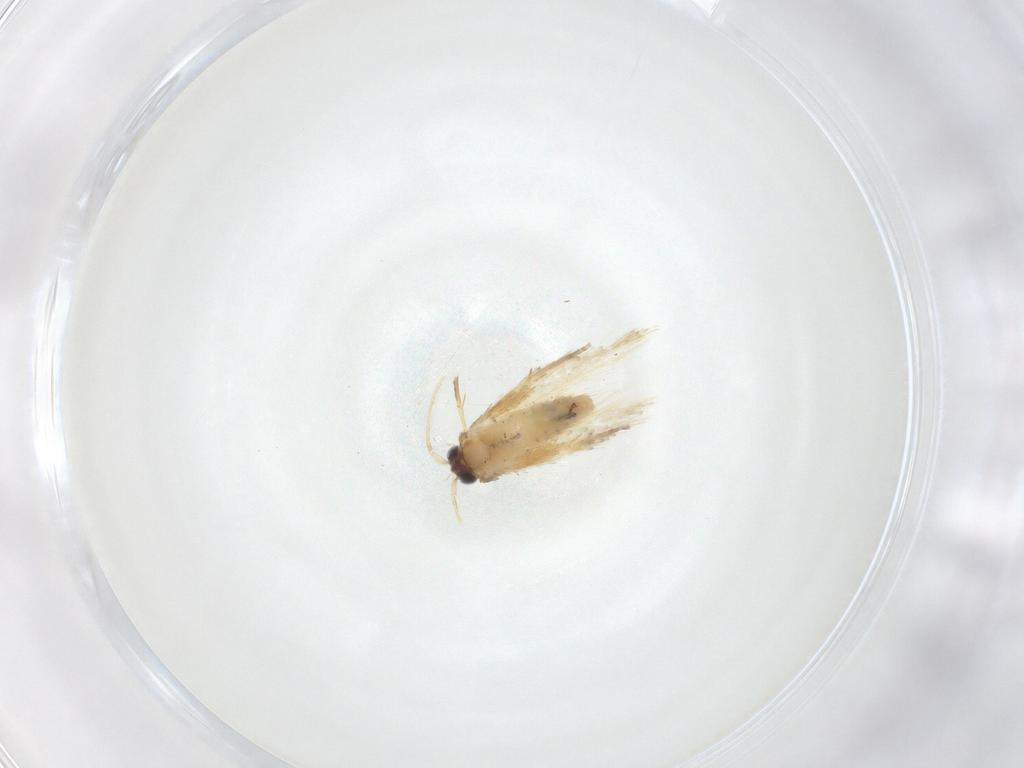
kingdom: Animalia
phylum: Arthropoda
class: Insecta
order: Lepidoptera
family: Nepticulidae
